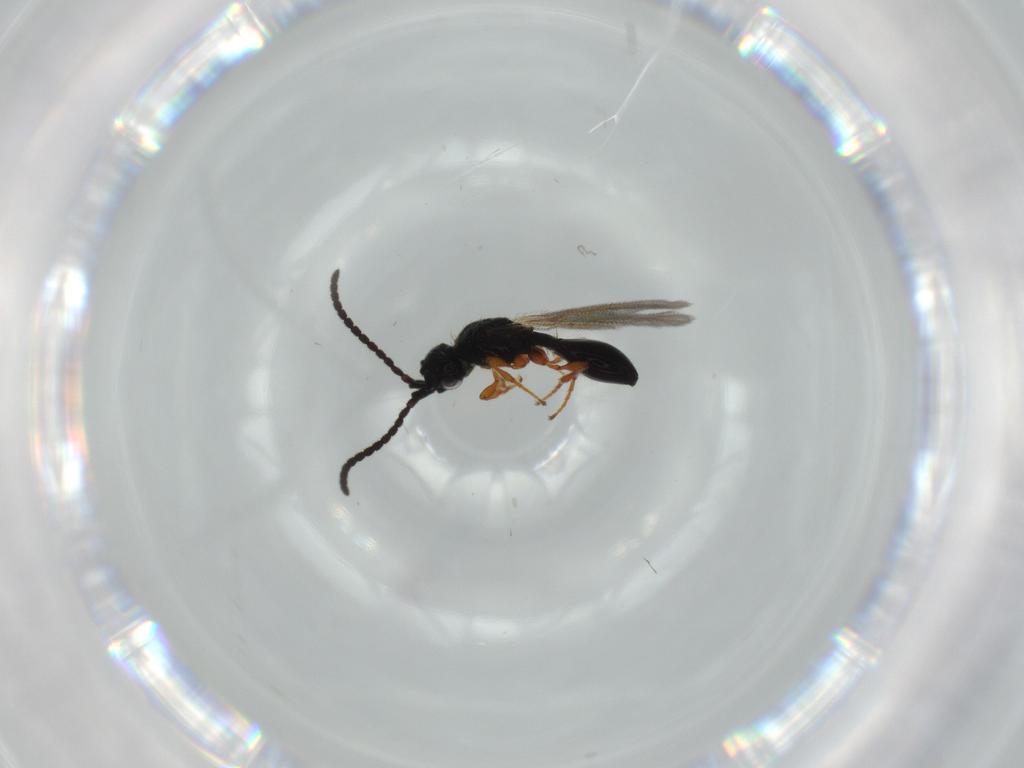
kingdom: Animalia
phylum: Arthropoda
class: Insecta
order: Hymenoptera
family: Diapriidae
